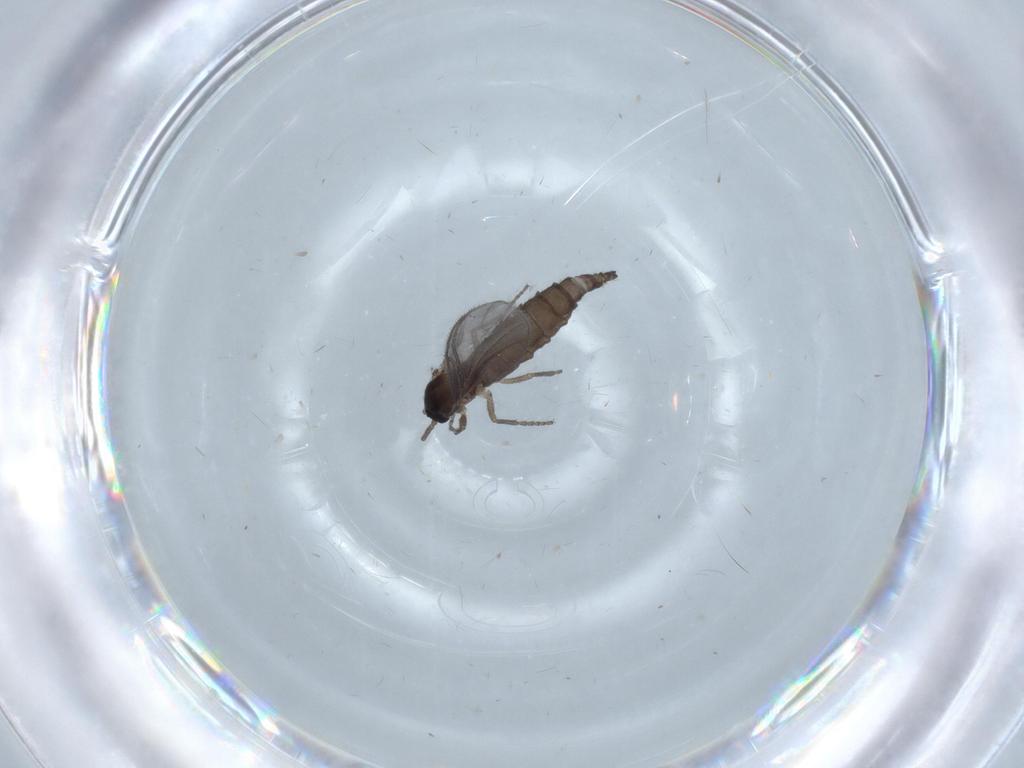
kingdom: Animalia
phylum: Arthropoda
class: Insecta
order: Diptera
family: Sciaridae
